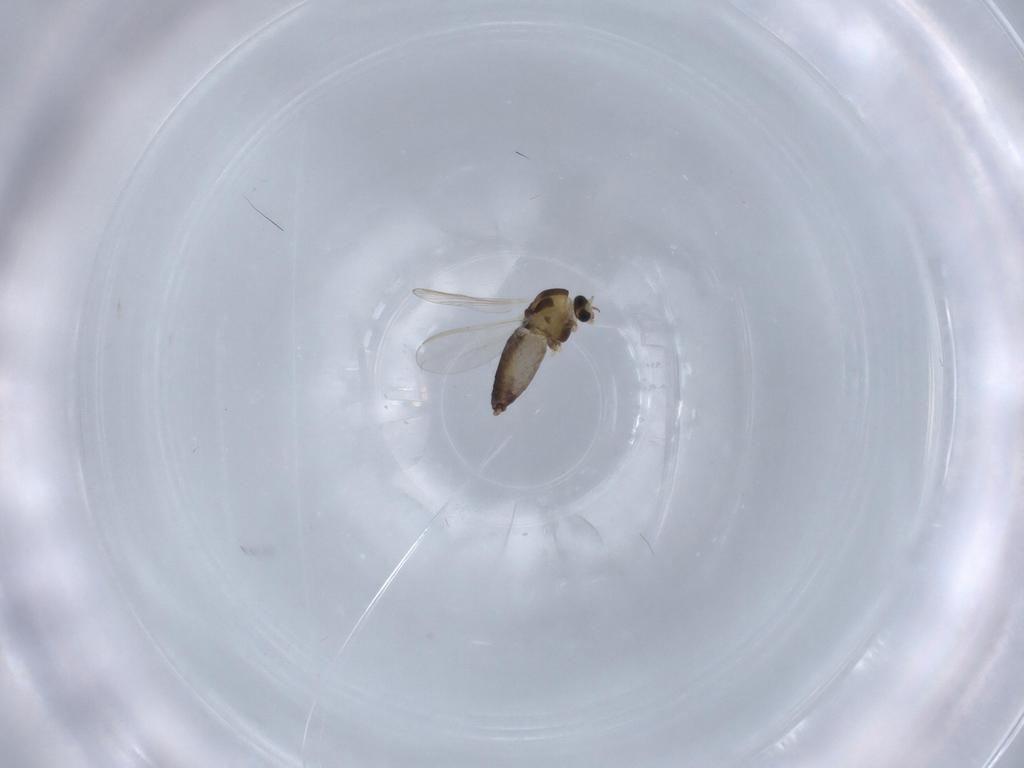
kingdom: Animalia
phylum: Arthropoda
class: Insecta
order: Diptera
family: Chironomidae
